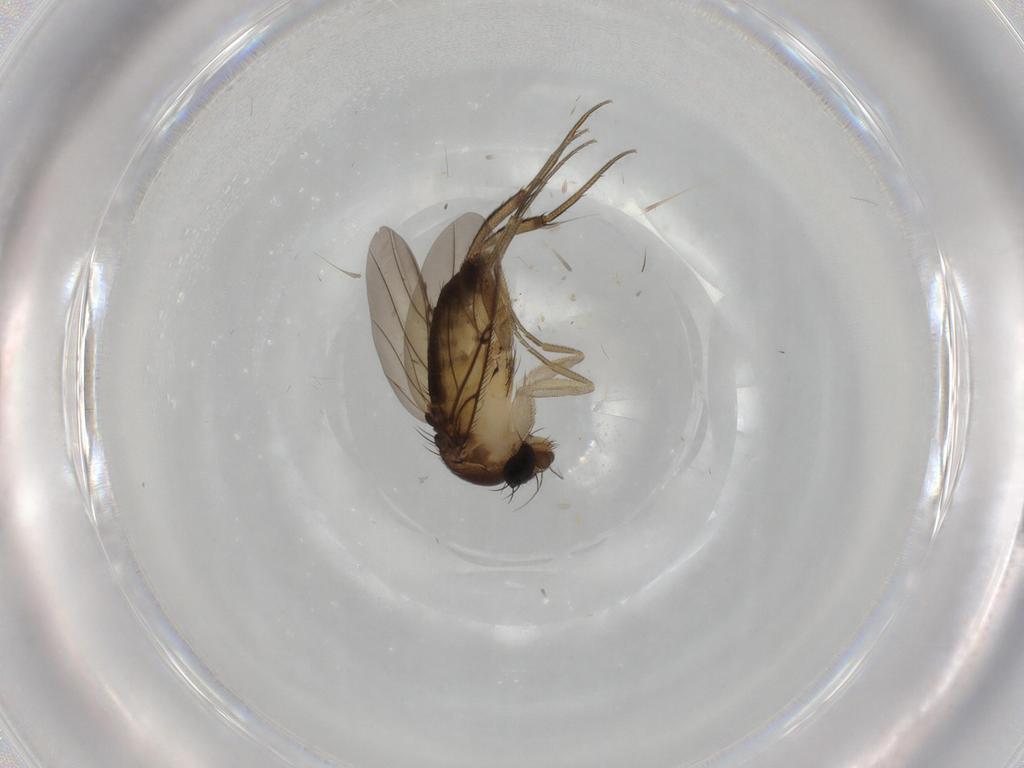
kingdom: Animalia
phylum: Arthropoda
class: Insecta
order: Diptera
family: Phoridae
